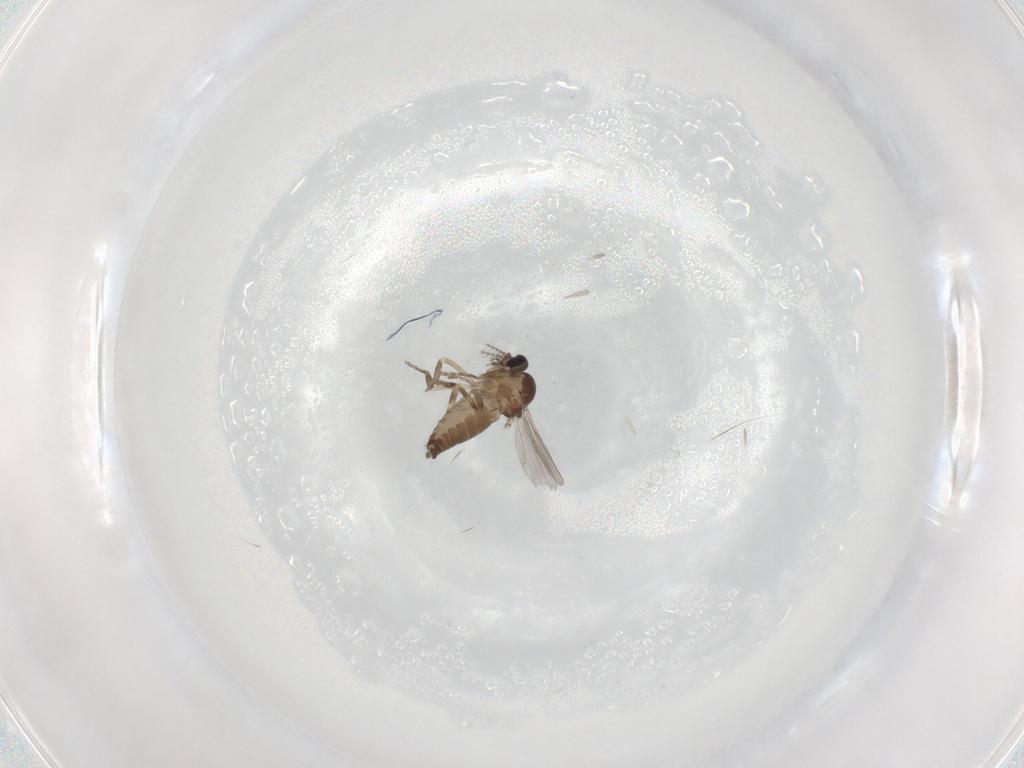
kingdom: Animalia
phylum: Arthropoda
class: Insecta
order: Diptera
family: Ceratopogonidae
